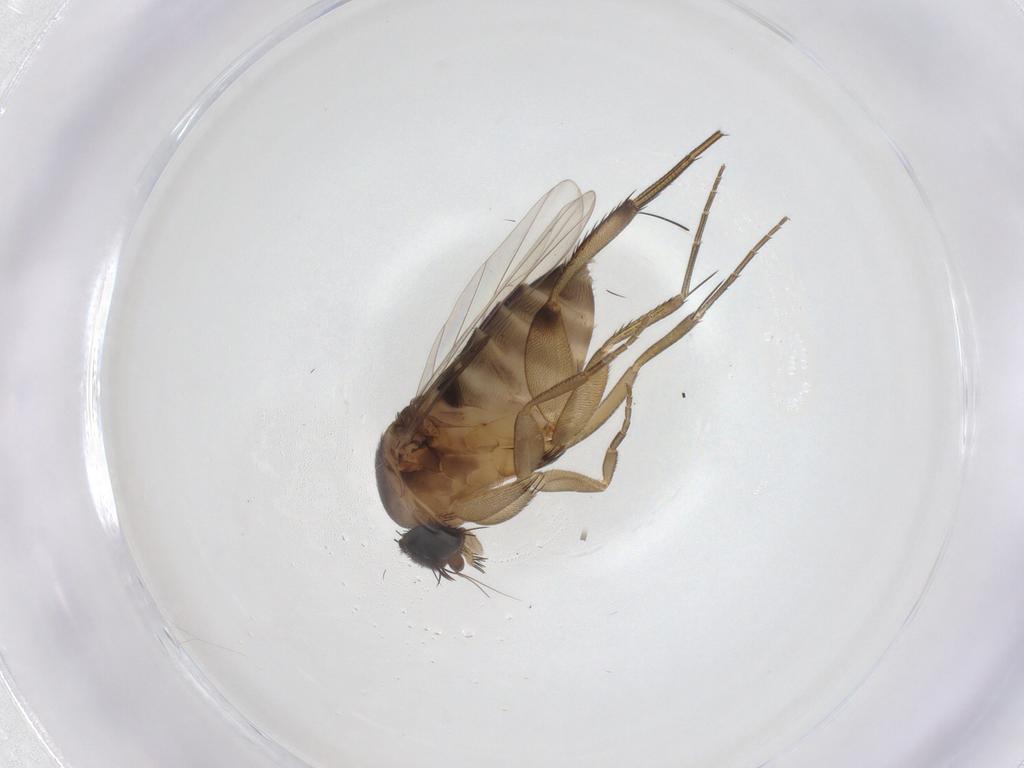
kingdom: Animalia
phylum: Arthropoda
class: Insecta
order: Diptera
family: Phoridae
